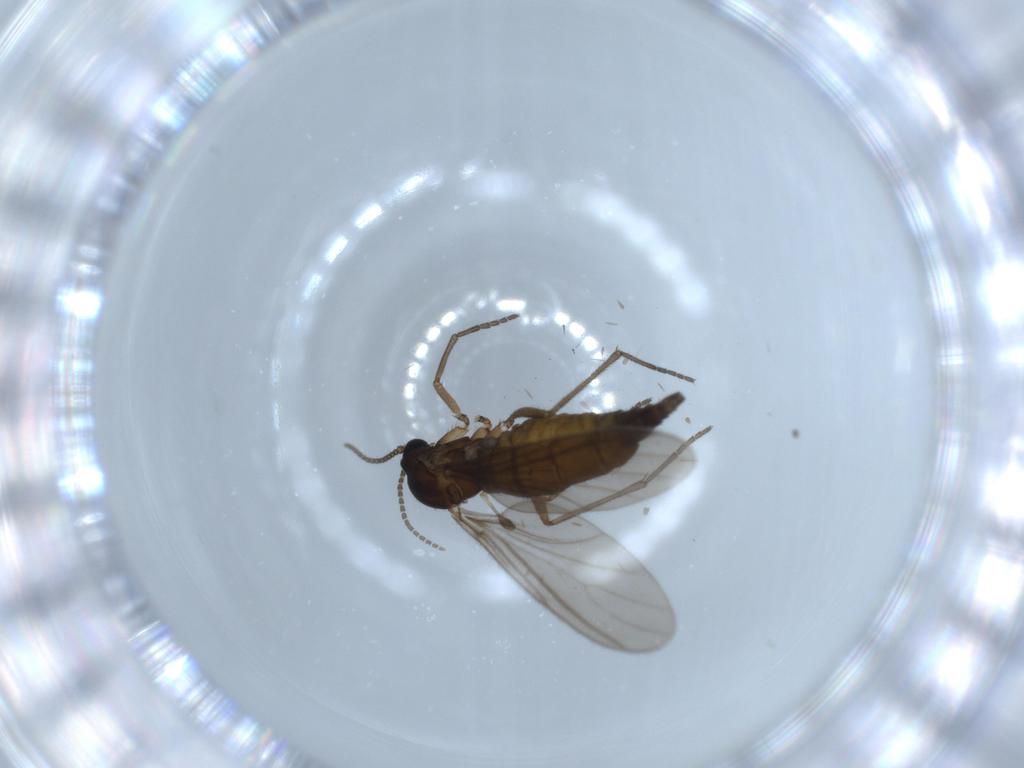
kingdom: Animalia
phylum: Arthropoda
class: Insecta
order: Diptera
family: Sciaridae
